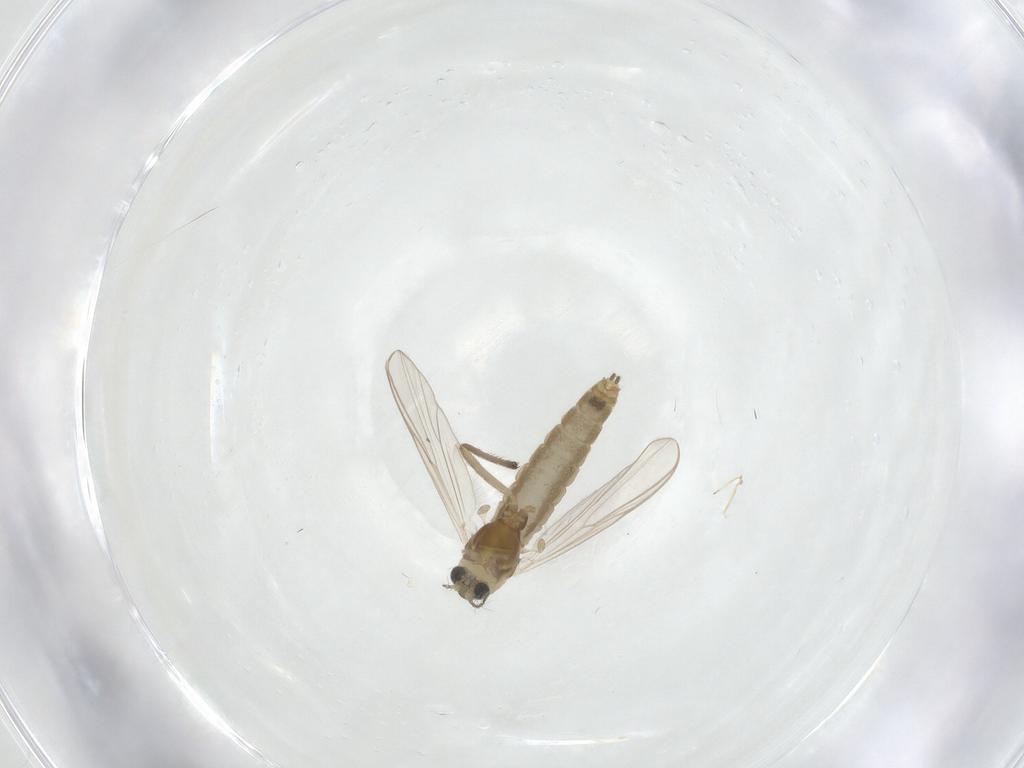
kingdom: Animalia
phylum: Arthropoda
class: Insecta
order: Diptera
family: Chironomidae
